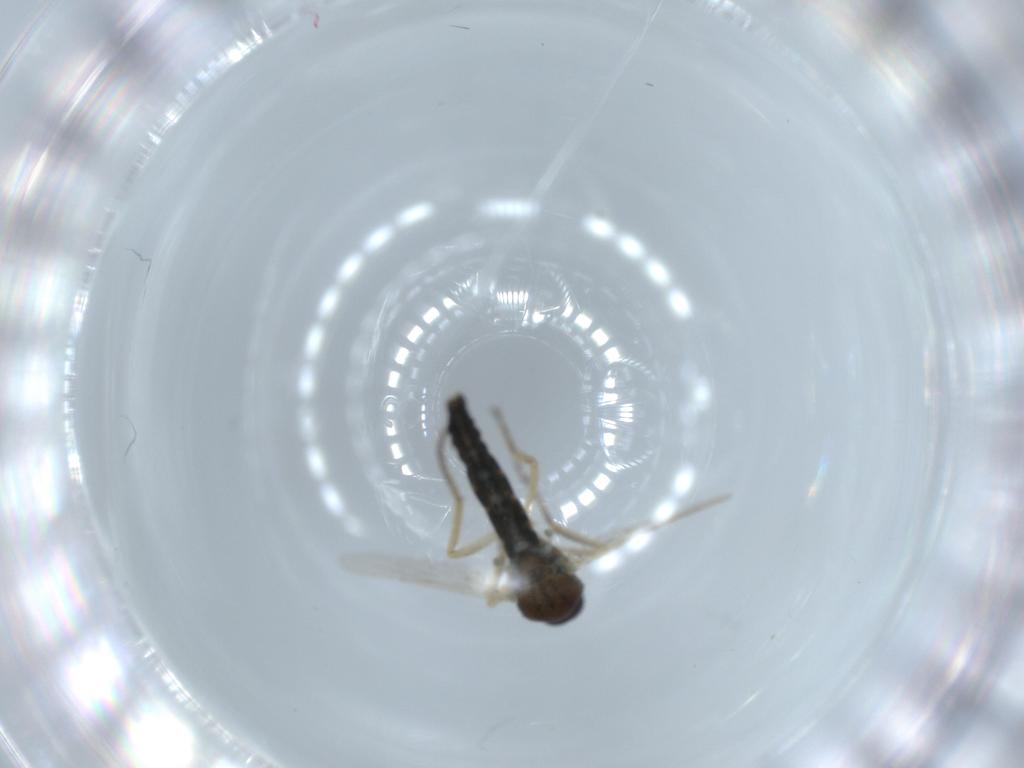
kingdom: Animalia
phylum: Arthropoda
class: Insecta
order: Diptera
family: Ceratopogonidae
